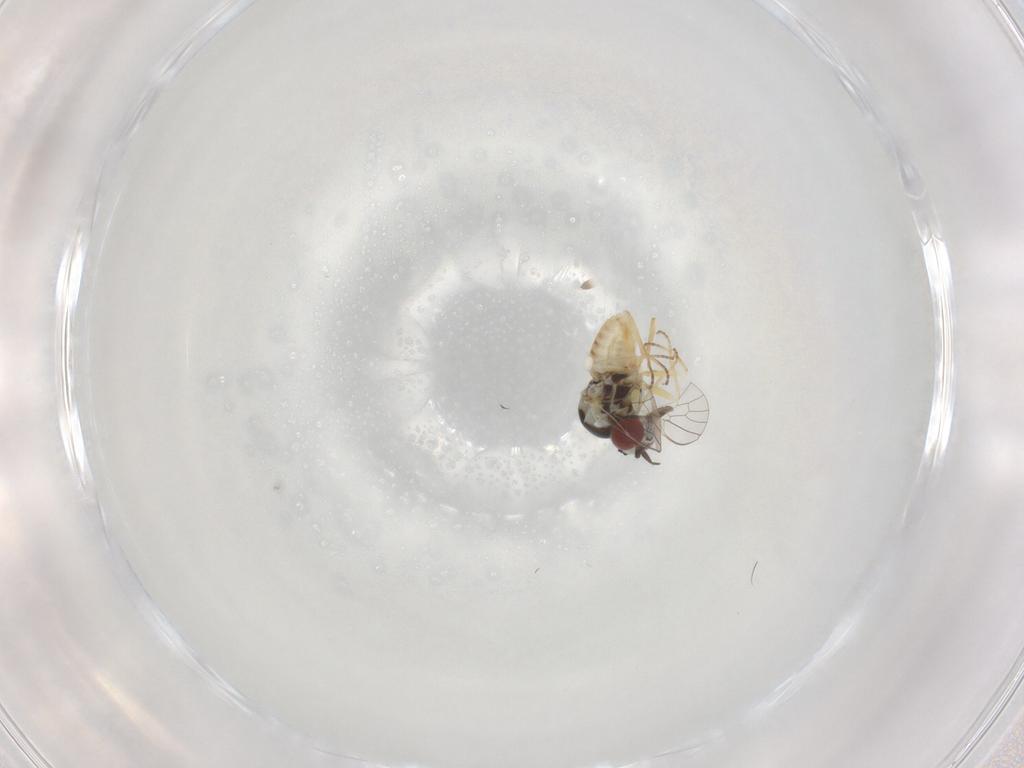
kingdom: Animalia
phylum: Arthropoda
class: Insecta
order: Diptera
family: Bombyliidae
